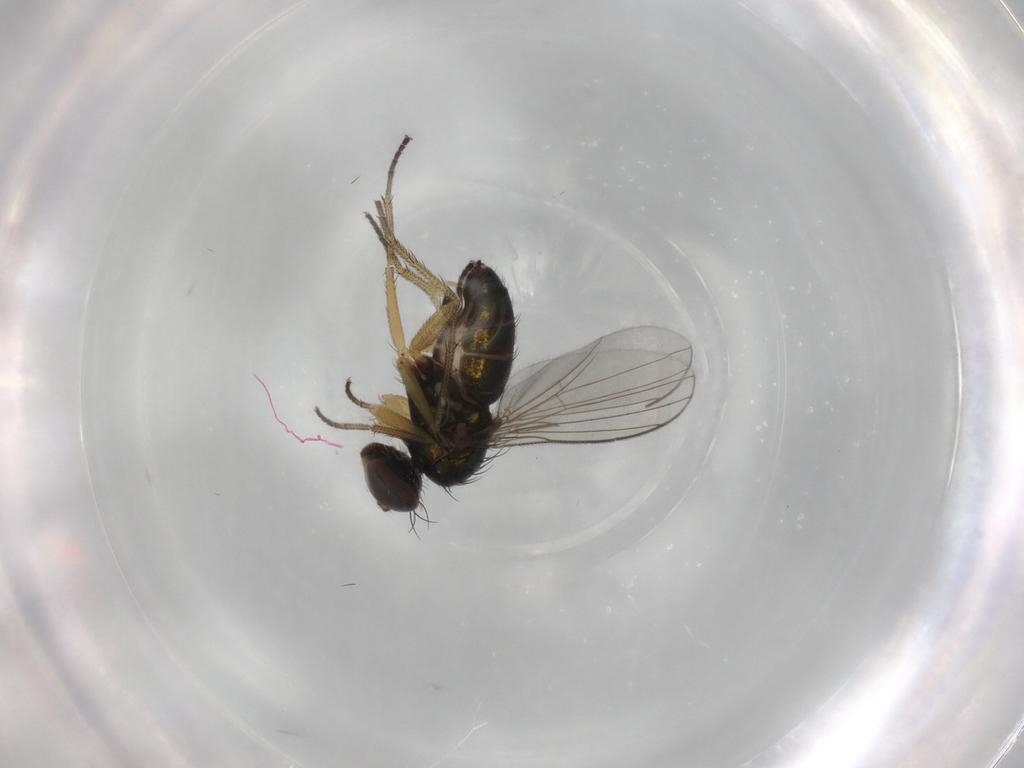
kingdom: Animalia
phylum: Arthropoda
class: Insecta
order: Diptera
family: Dolichopodidae
